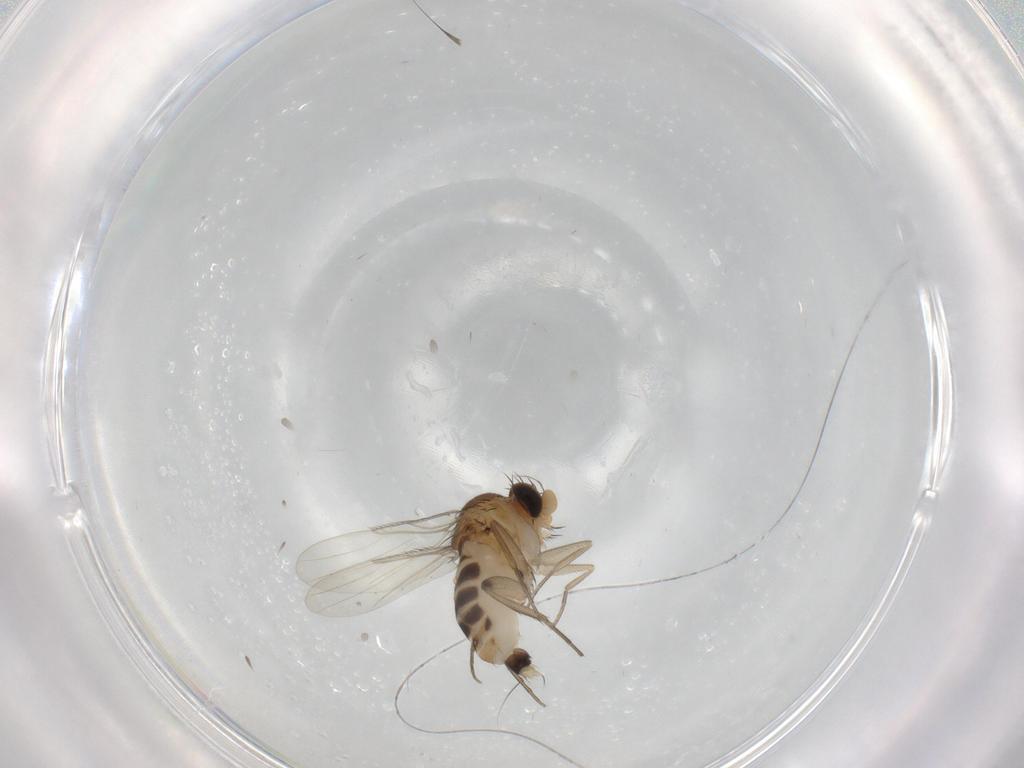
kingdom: Animalia
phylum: Arthropoda
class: Insecta
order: Diptera
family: Phoridae
